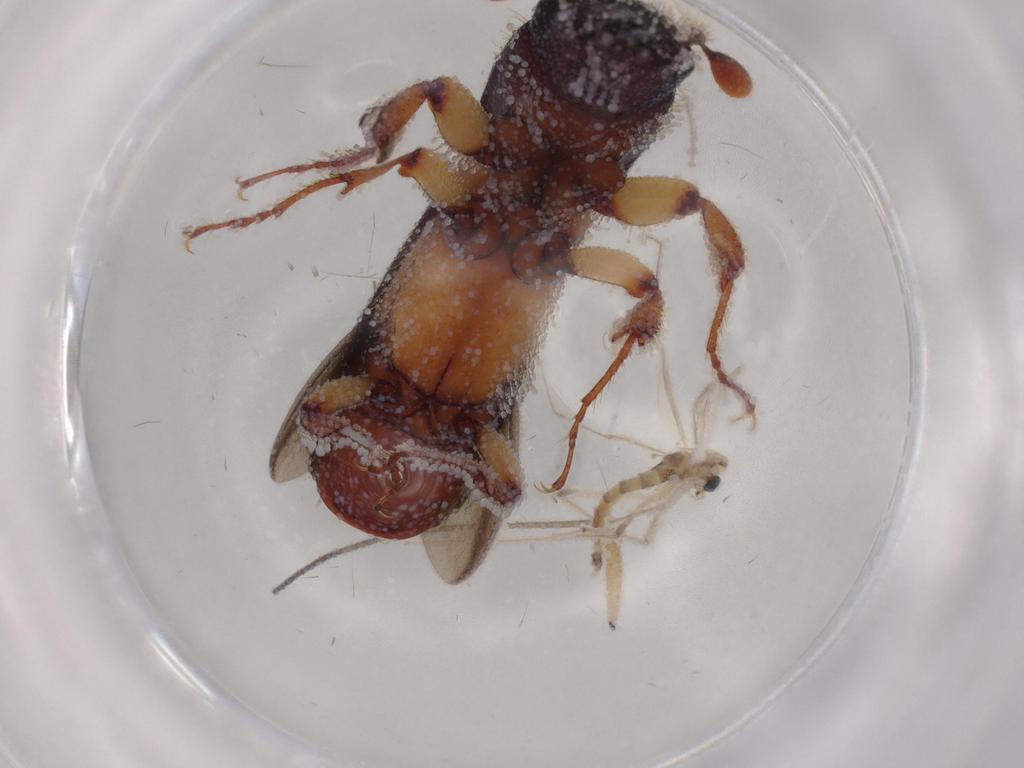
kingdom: Animalia
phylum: Arthropoda
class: Insecta
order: Coleoptera
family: Curculionidae
